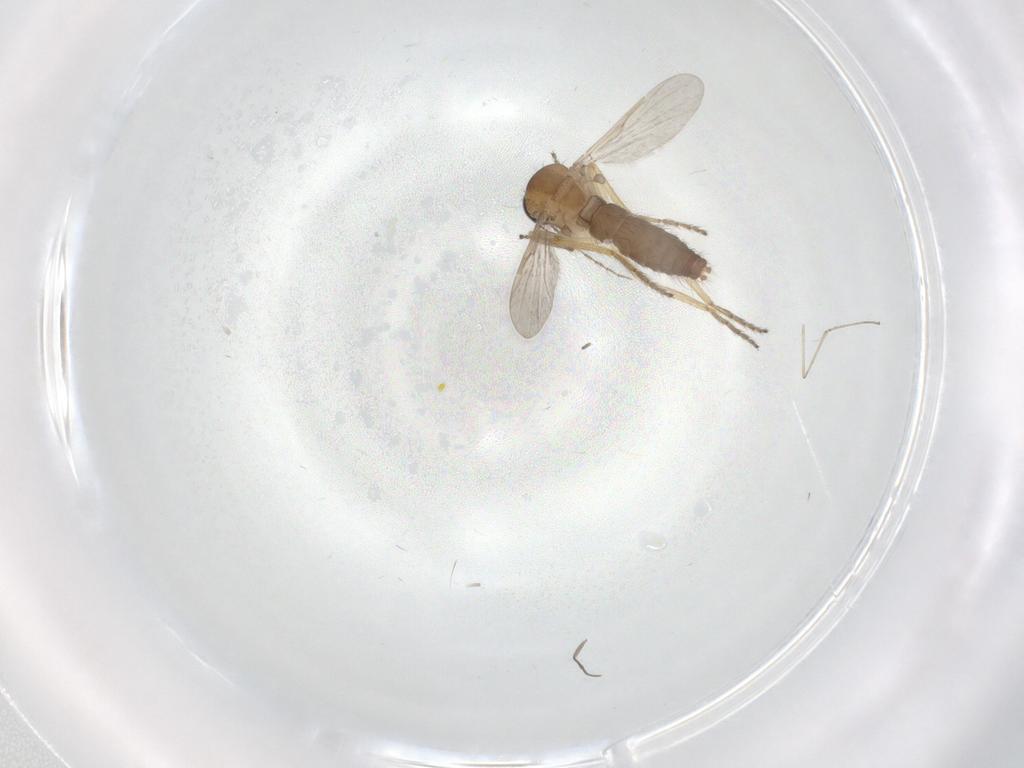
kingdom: Animalia
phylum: Arthropoda
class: Insecta
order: Diptera
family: Ceratopogonidae
